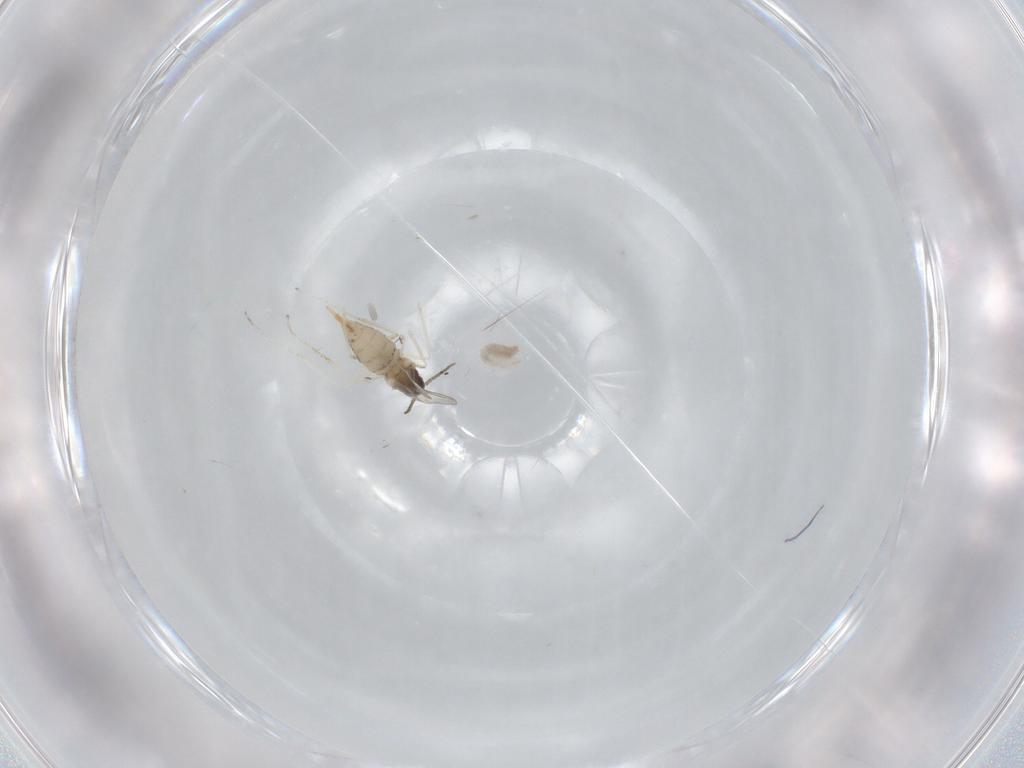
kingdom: Animalia
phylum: Arthropoda
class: Insecta
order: Diptera
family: Cecidomyiidae
